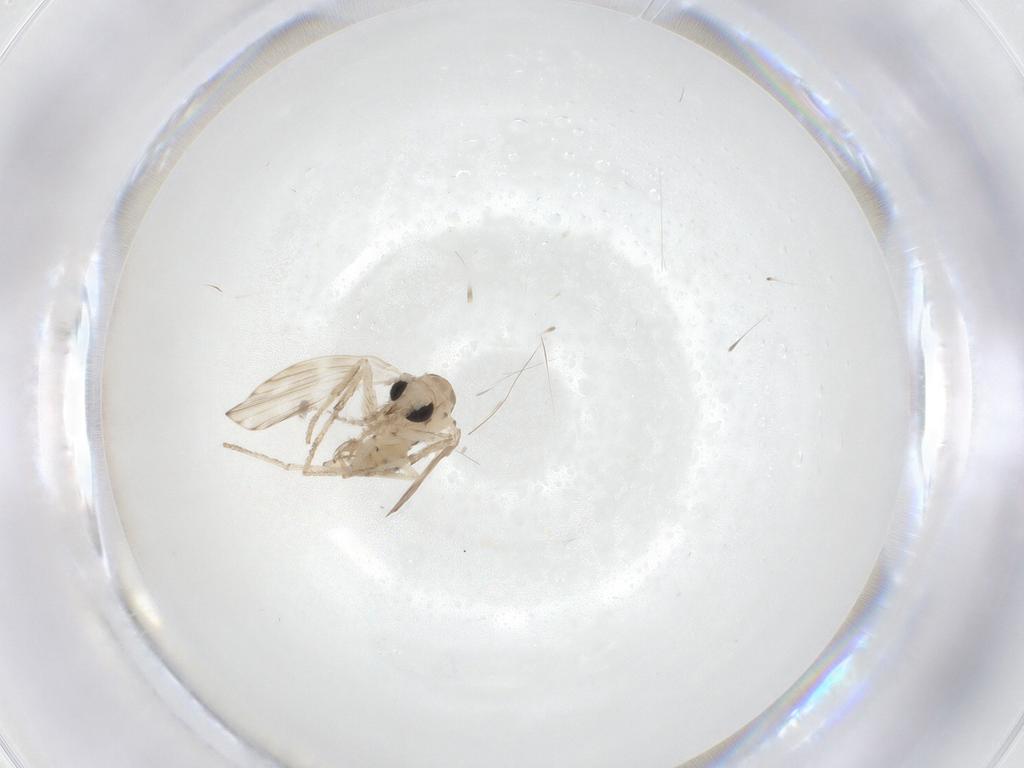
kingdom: Animalia
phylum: Arthropoda
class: Insecta
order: Diptera
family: Psychodidae
